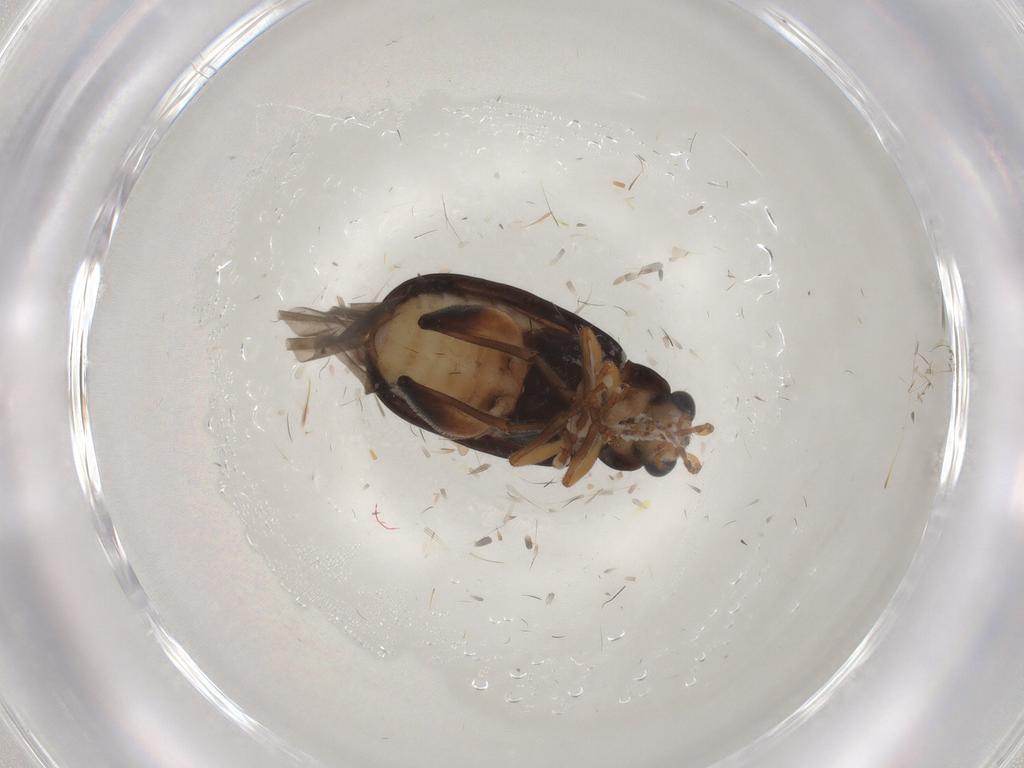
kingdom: Animalia
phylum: Arthropoda
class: Insecta
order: Coleoptera
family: Chrysomelidae
